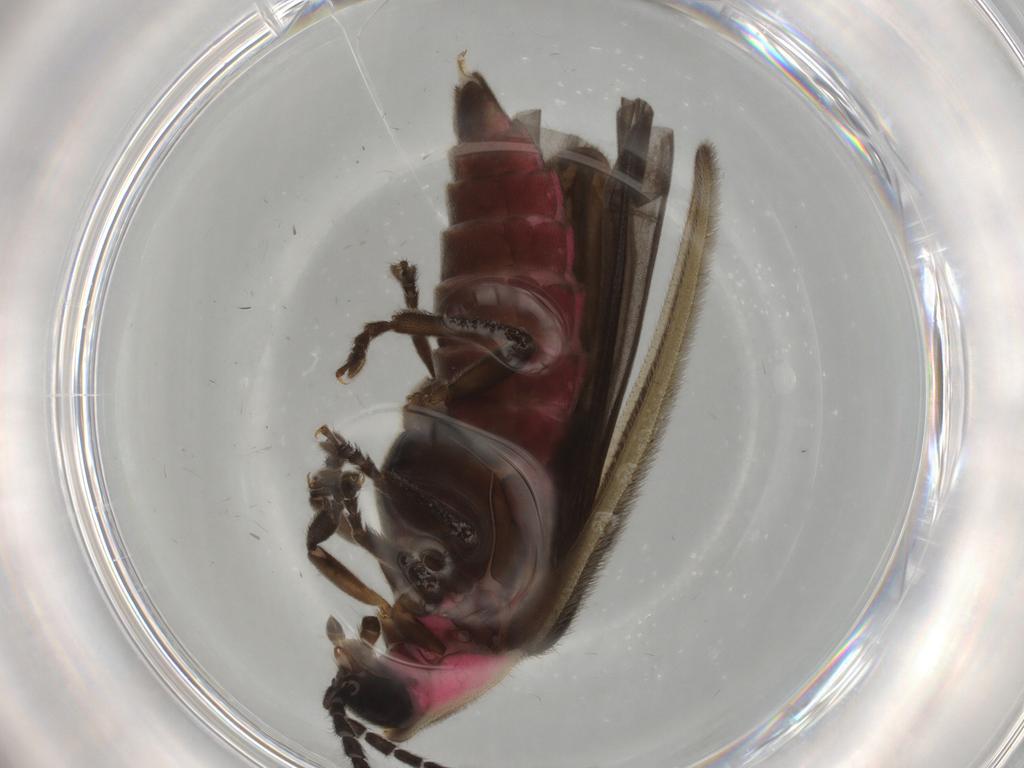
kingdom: Animalia
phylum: Arthropoda
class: Insecta
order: Coleoptera
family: Lampyridae
